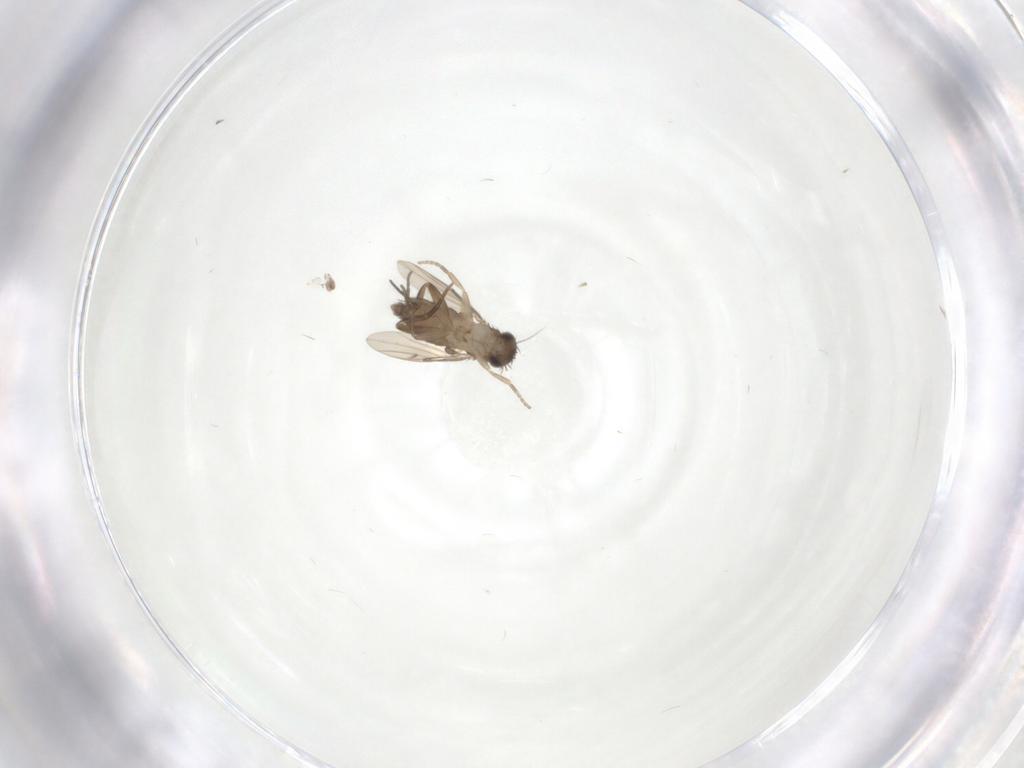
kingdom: Animalia
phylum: Arthropoda
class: Insecta
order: Diptera
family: Phoridae
